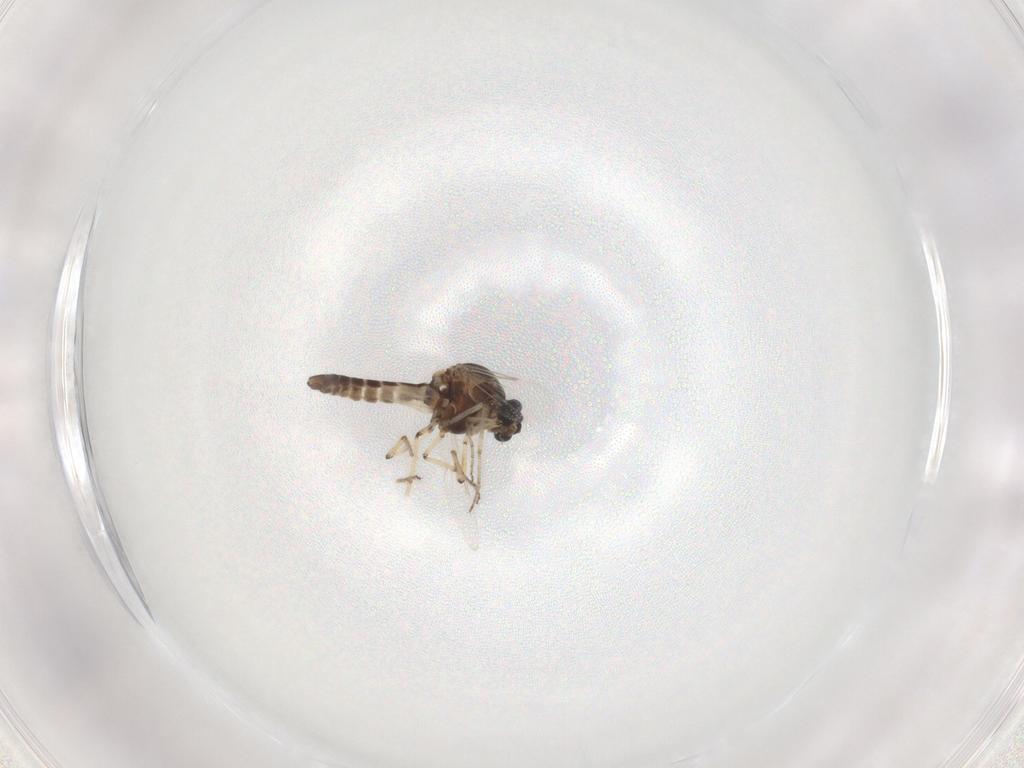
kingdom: Animalia
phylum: Arthropoda
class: Insecta
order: Diptera
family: Ceratopogonidae
